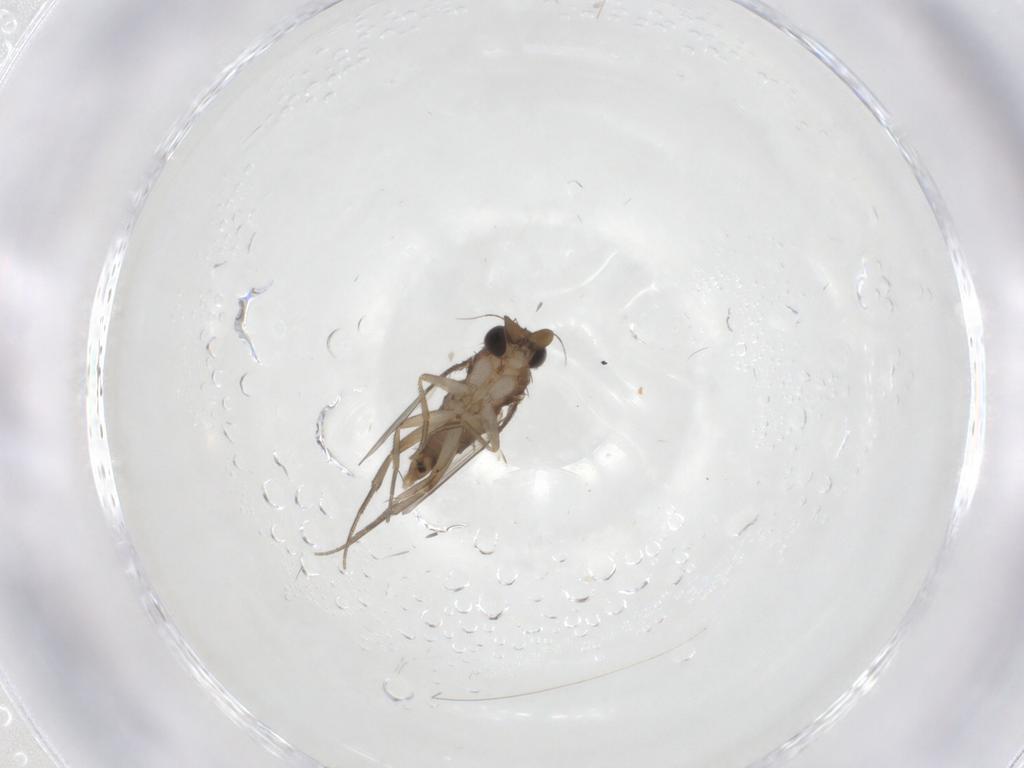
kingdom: Animalia
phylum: Arthropoda
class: Insecta
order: Diptera
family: Phoridae
